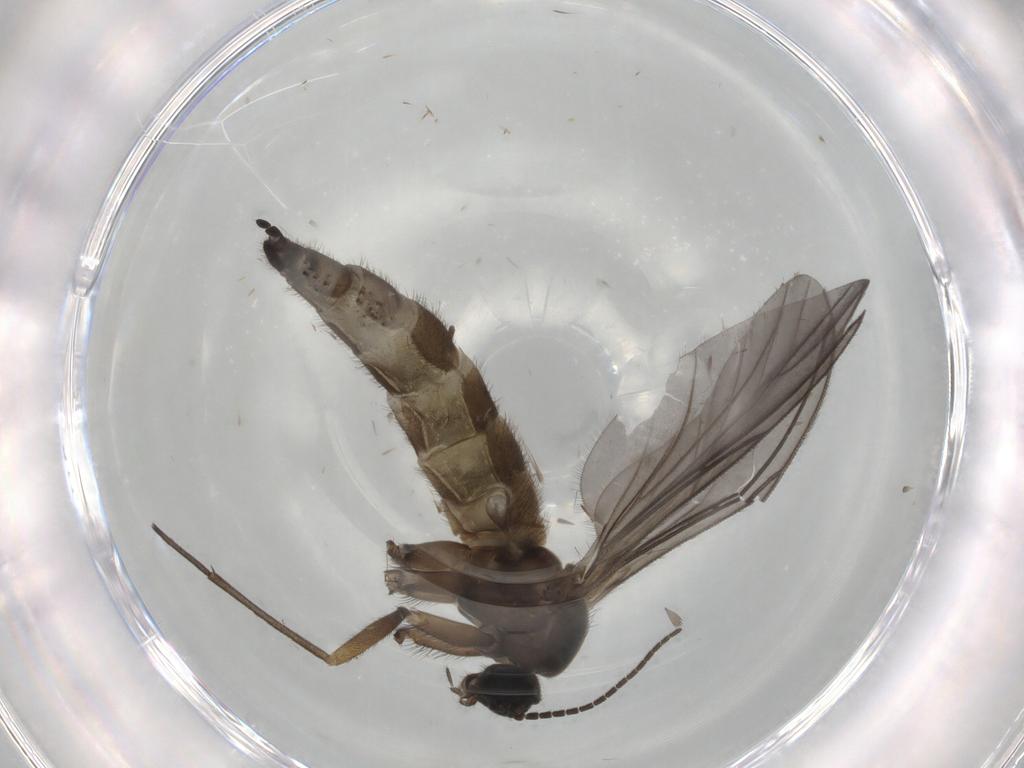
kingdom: Animalia
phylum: Arthropoda
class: Insecta
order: Diptera
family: Sciaridae
